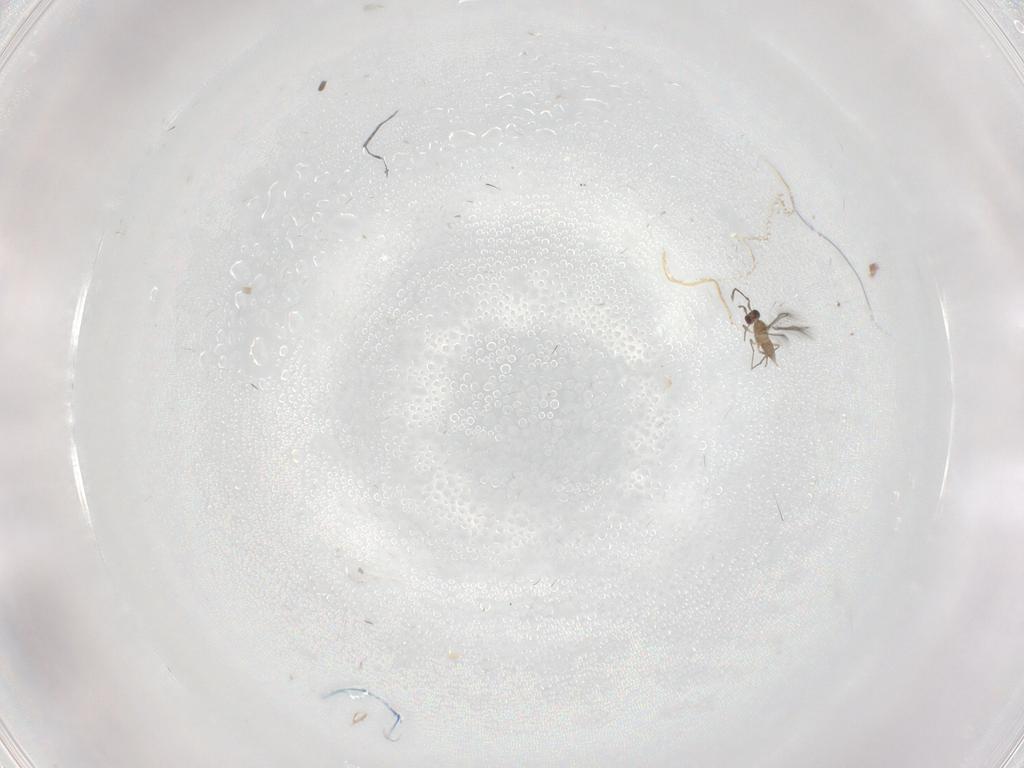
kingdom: Animalia
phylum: Arthropoda
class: Insecta
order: Hymenoptera
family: Mymaridae
